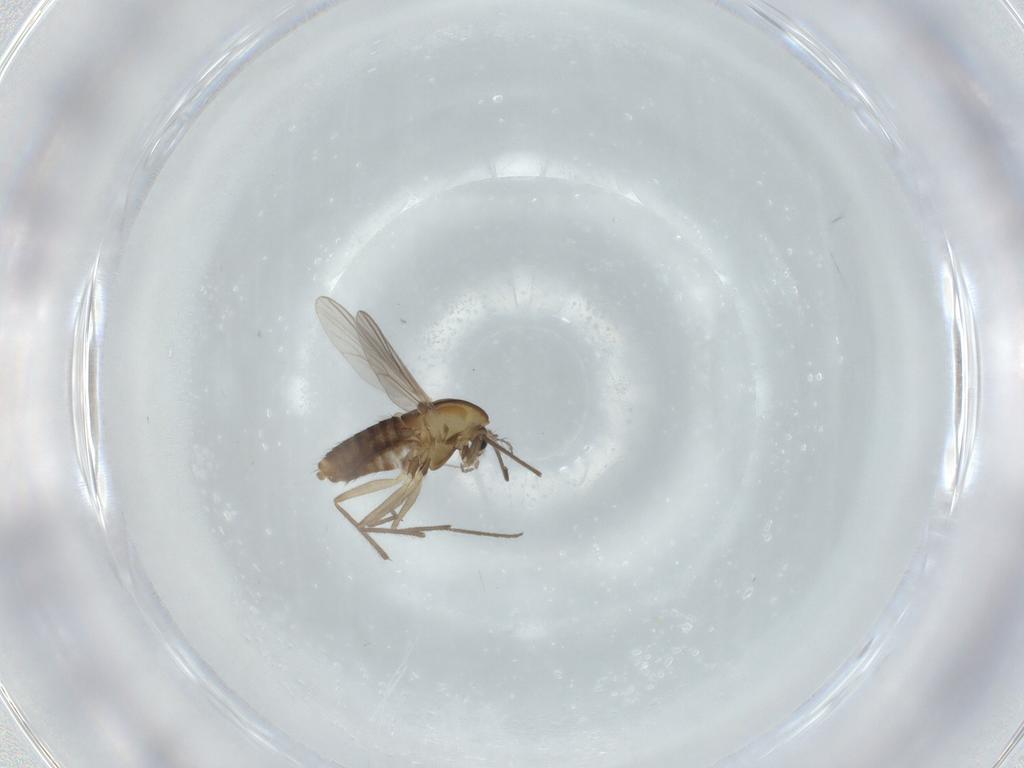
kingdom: Animalia
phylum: Arthropoda
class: Insecta
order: Diptera
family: Chironomidae
